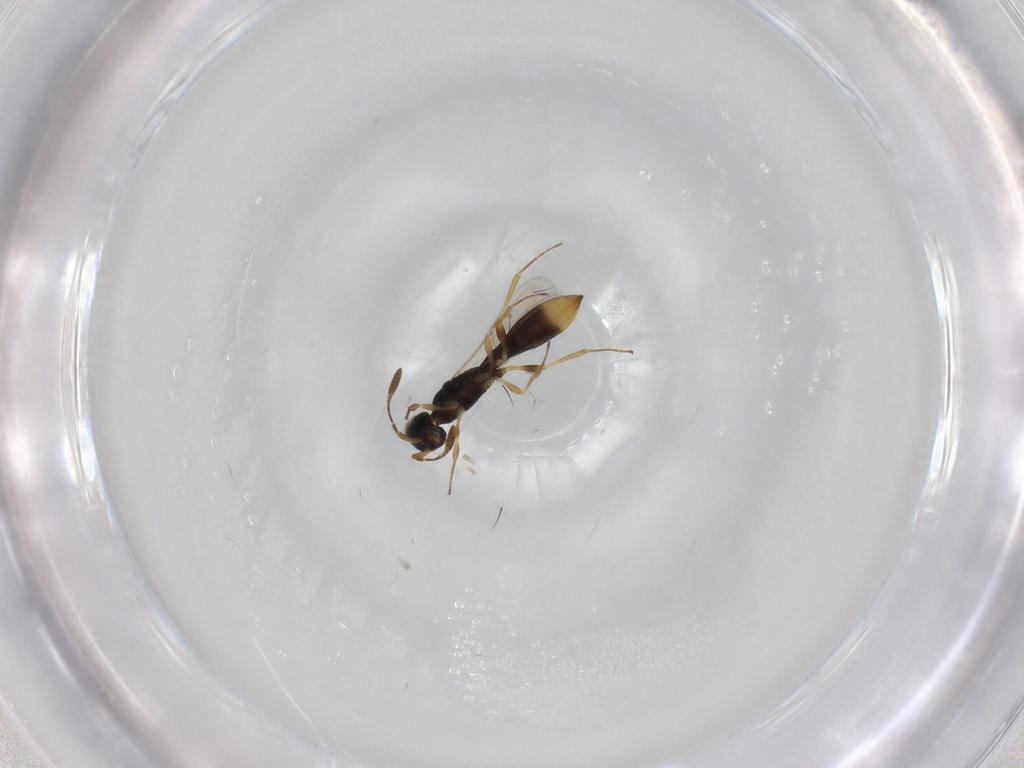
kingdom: Animalia
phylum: Arthropoda
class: Insecta
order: Hymenoptera
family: Scelionidae
